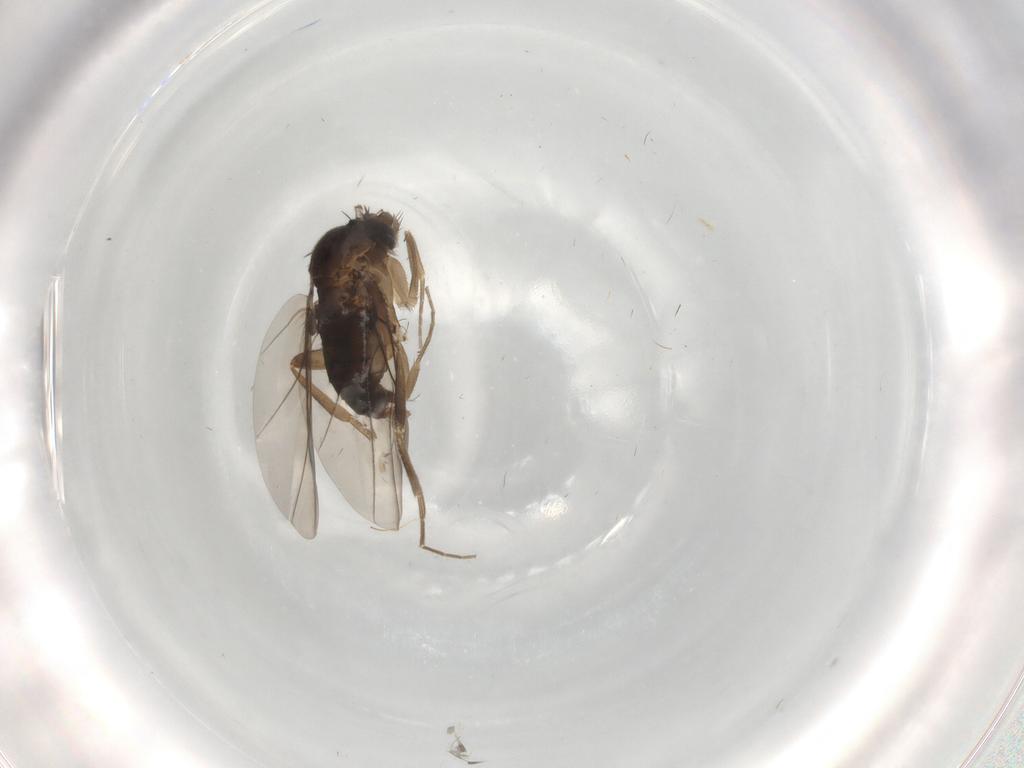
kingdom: Animalia
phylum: Arthropoda
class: Insecta
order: Diptera
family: Phoridae
